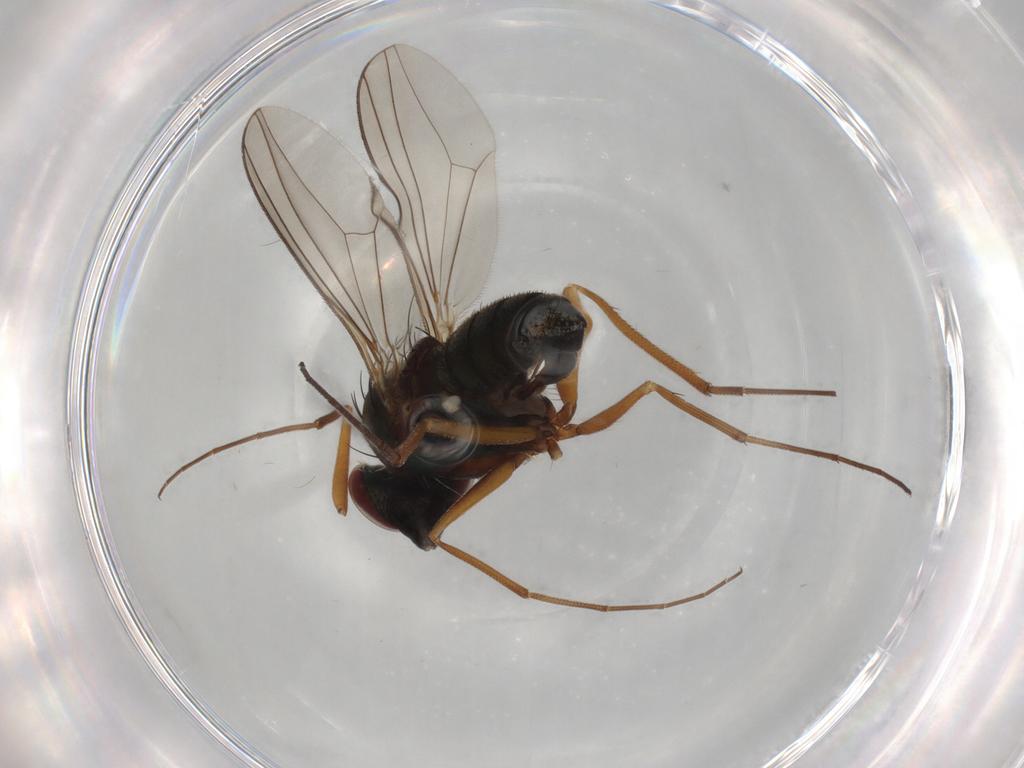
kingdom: Animalia
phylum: Arthropoda
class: Insecta
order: Diptera
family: Dolichopodidae
